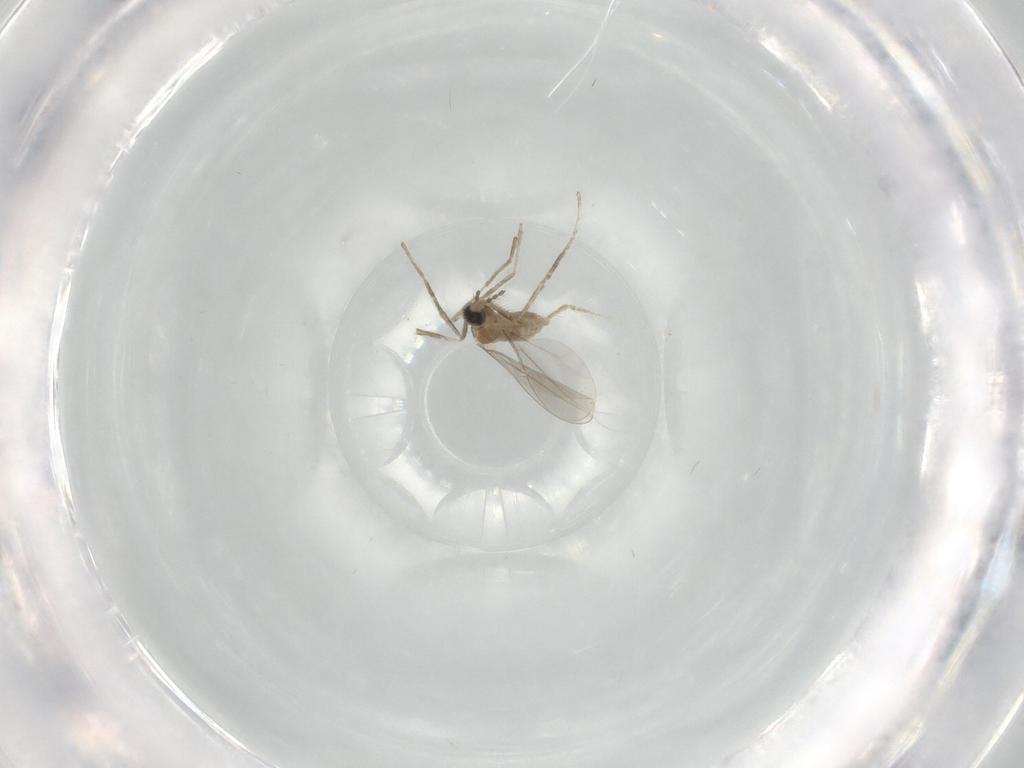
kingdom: Animalia
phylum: Arthropoda
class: Insecta
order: Diptera
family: Cecidomyiidae
